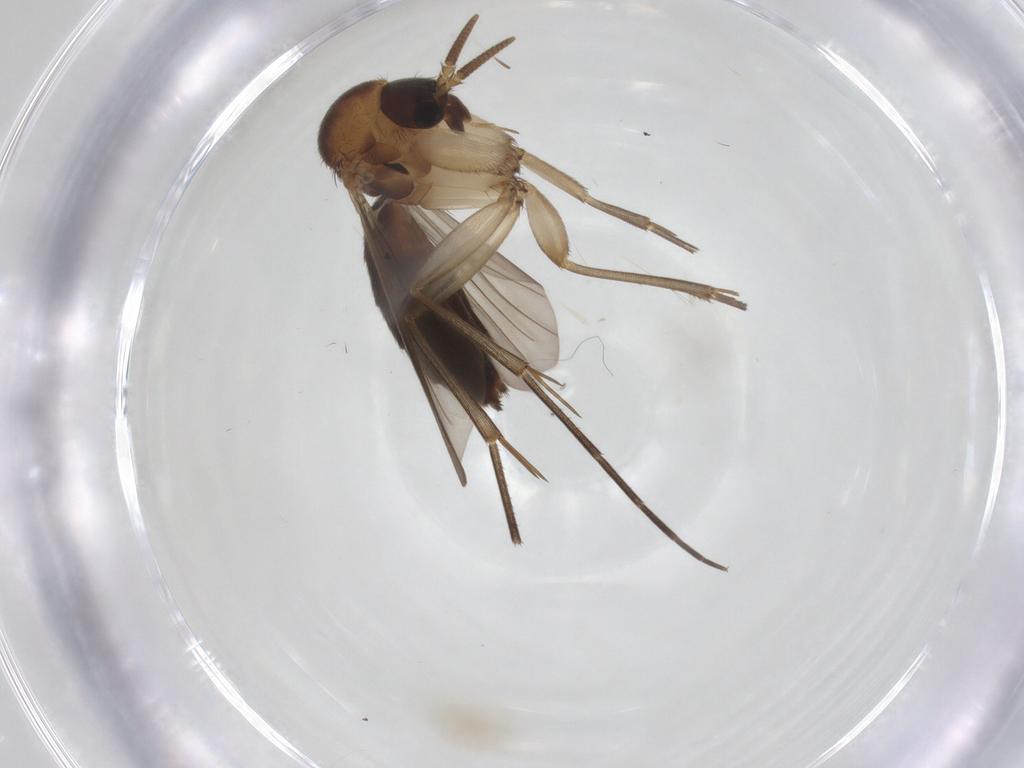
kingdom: Animalia
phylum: Arthropoda
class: Insecta
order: Diptera
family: Mycetophilidae
